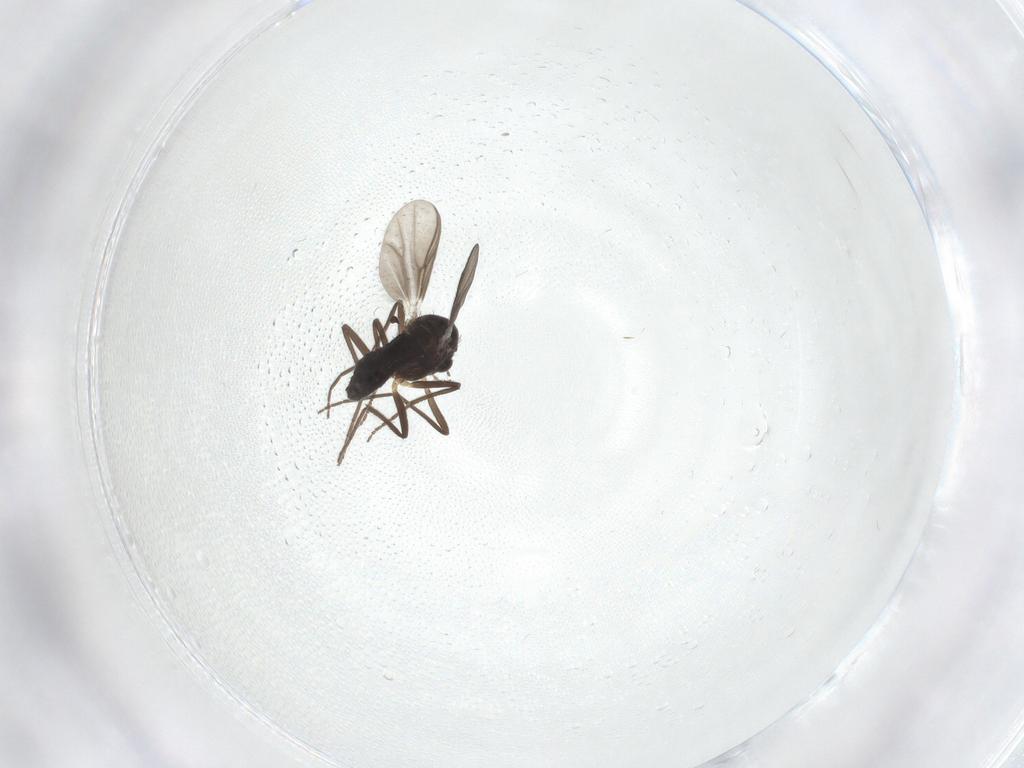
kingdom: Animalia
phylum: Arthropoda
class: Insecta
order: Diptera
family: Chironomidae
